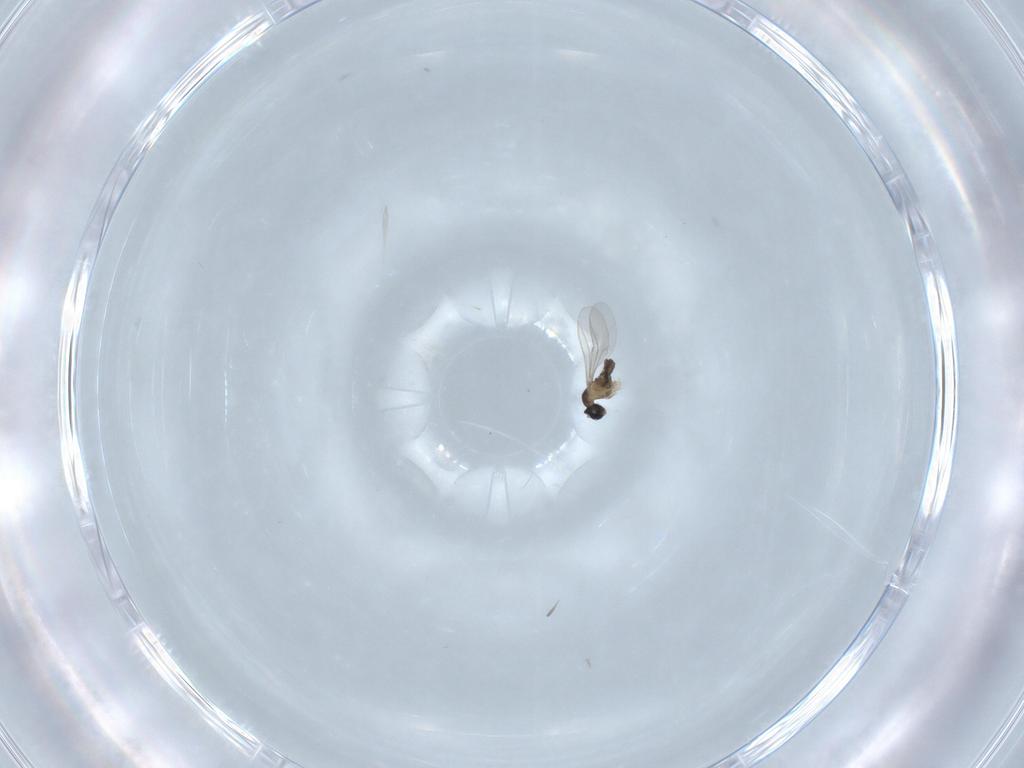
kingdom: Animalia
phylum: Arthropoda
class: Insecta
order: Diptera
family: Cecidomyiidae
